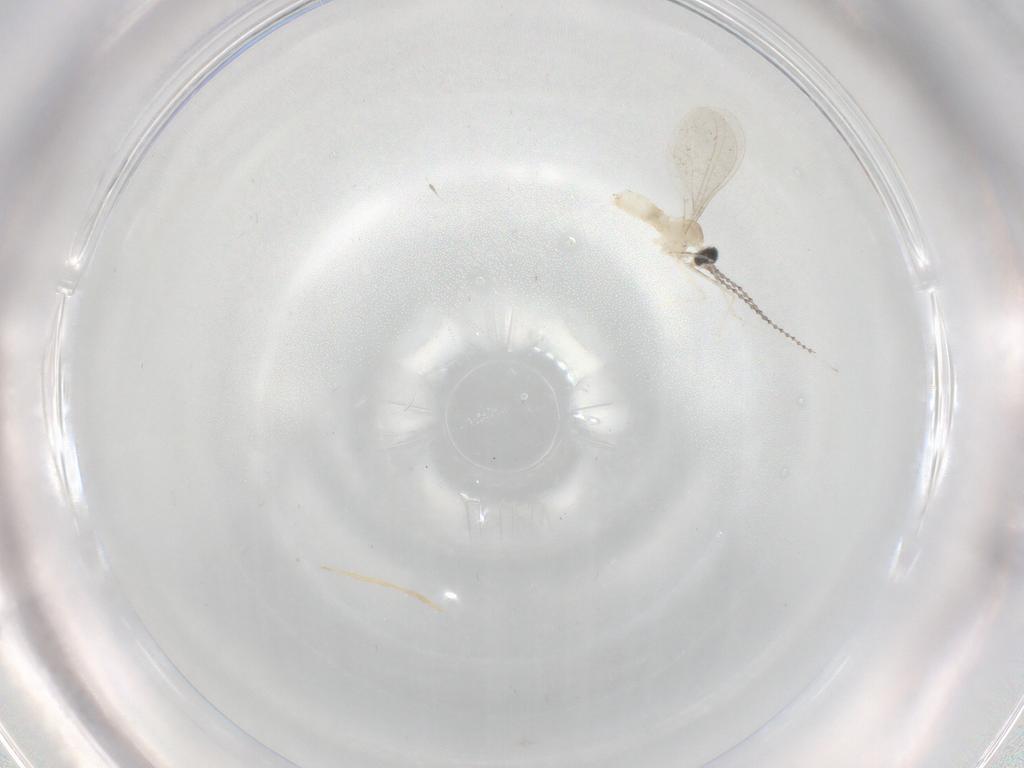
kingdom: Animalia
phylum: Arthropoda
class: Insecta
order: Diptera
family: Cecidomyiidae
